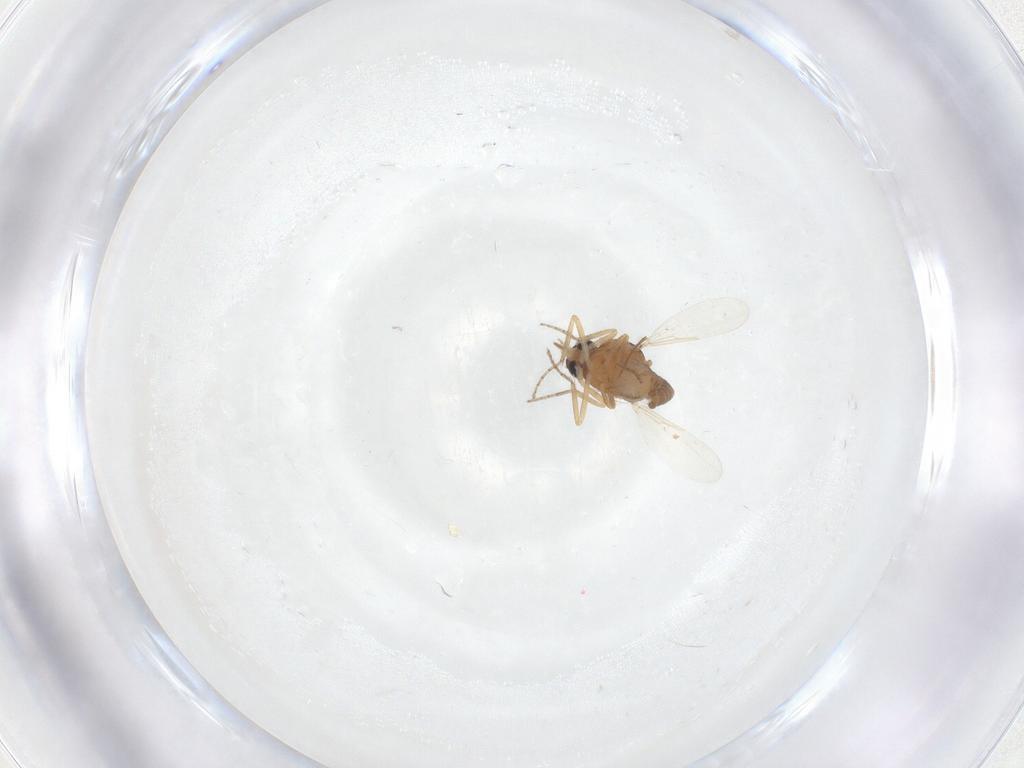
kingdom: Animalia
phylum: Arthropoda
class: Insecta
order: Diptera
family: Ceratopogonidae
